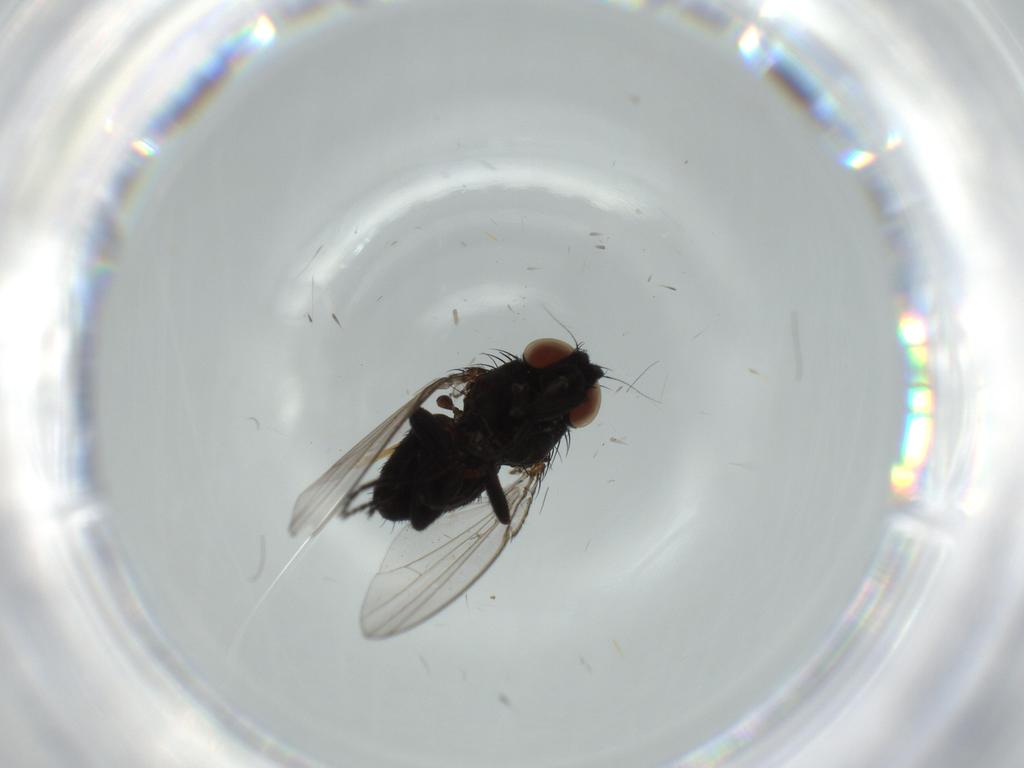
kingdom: Animalia
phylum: Arthropoda
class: Insecta
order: Diptera
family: Milichiidae
